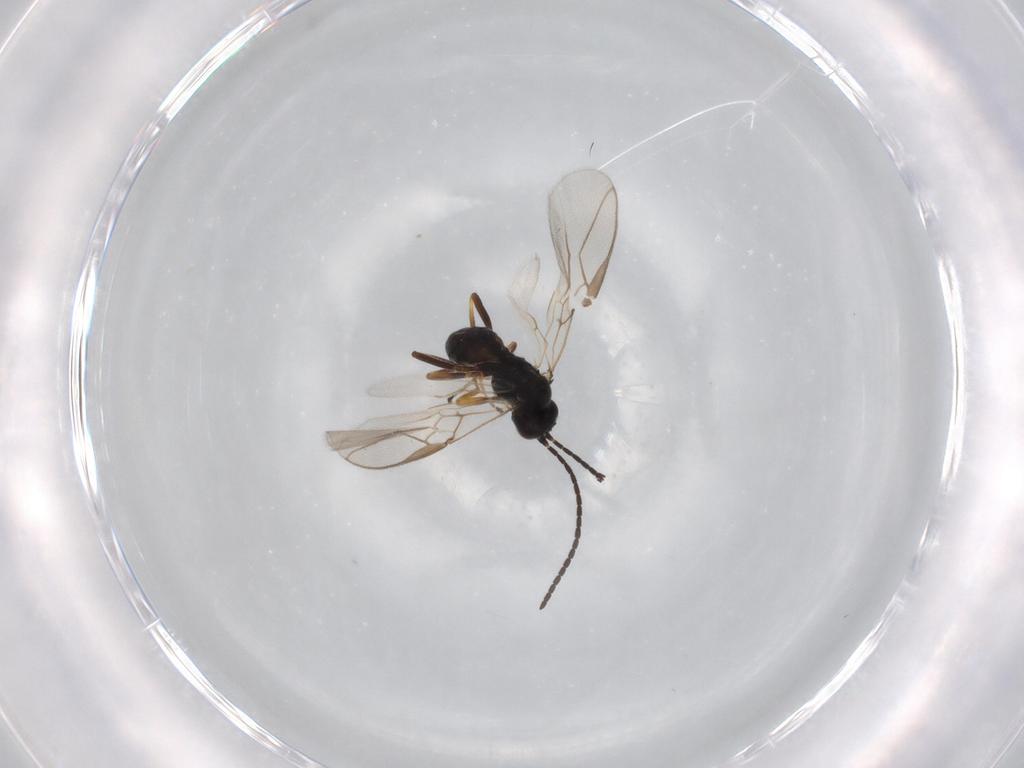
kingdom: Animalia
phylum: Arthropoda
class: Insecta
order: Hymenoptera
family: Braconidae
